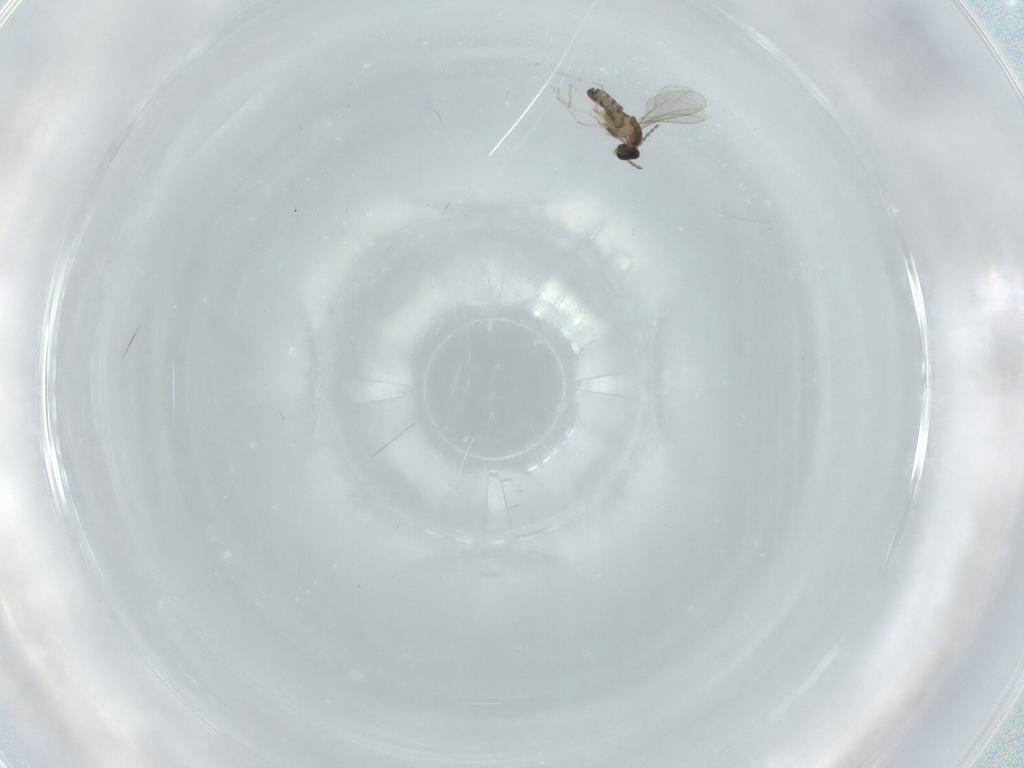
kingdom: Animalia
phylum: Arthropoda
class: Insecta
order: Diptera
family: Cecidomyiidae
